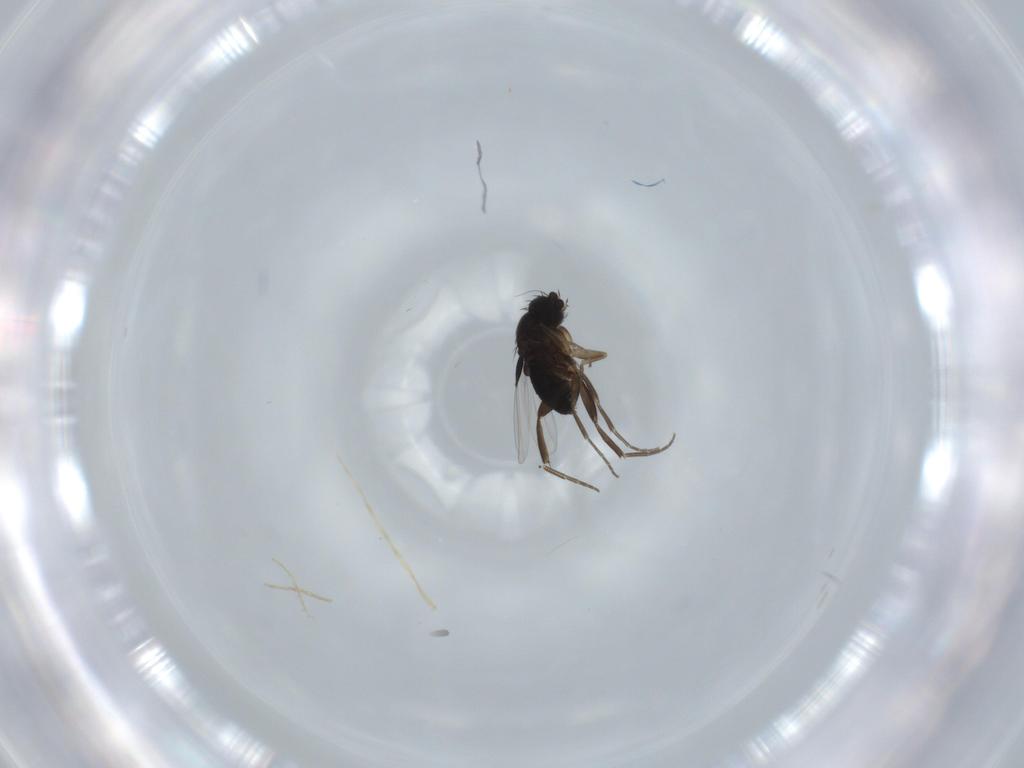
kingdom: Animalia
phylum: Arthropoda
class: Insecta
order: Diptera
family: Phoridae
